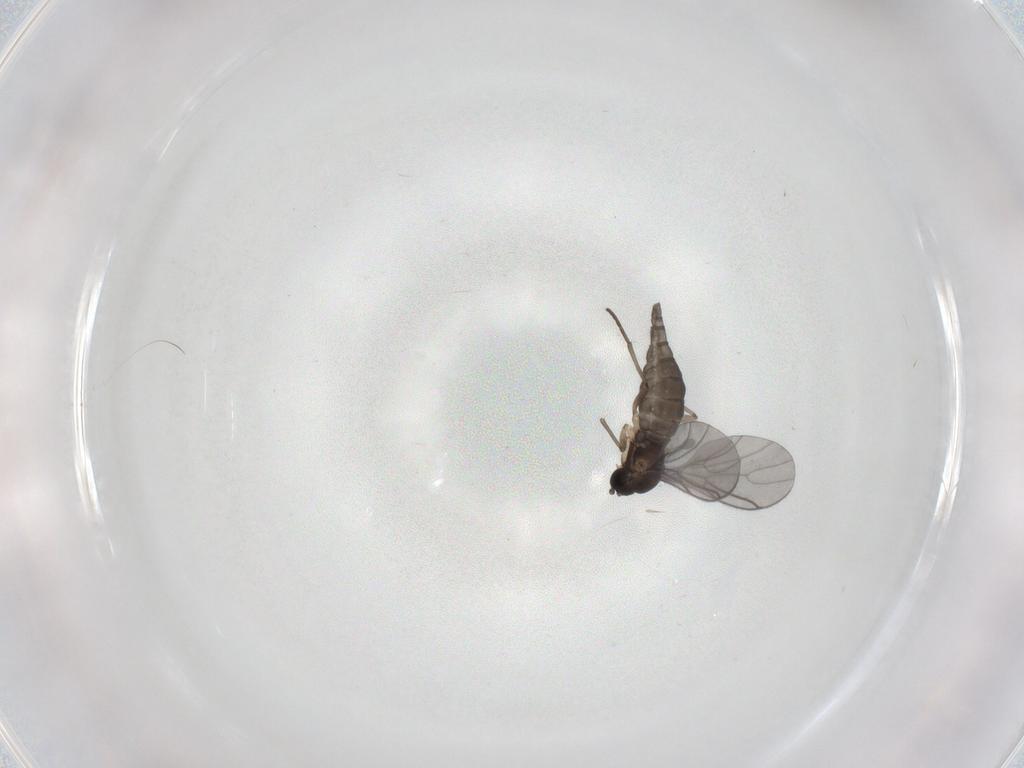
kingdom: Animalia
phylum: Arthropoda
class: Insecta
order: Diptera
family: Sciaridae
